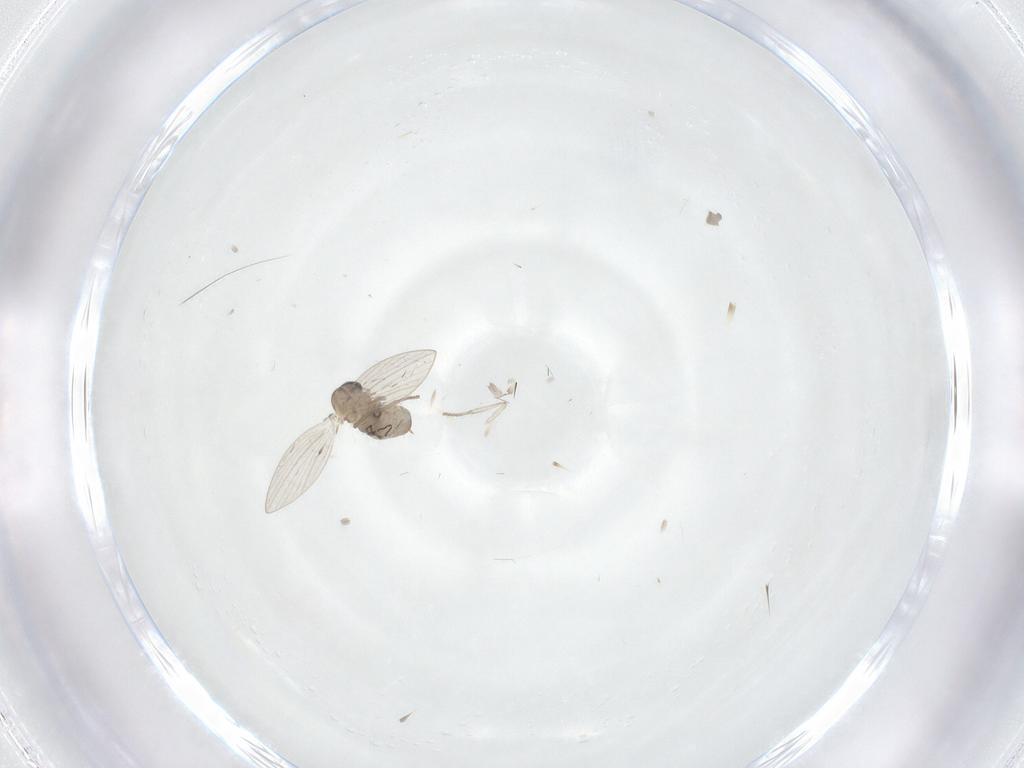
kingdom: Animalia
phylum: Arthropoda
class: Insecta
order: Diptera
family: Psychodidae
